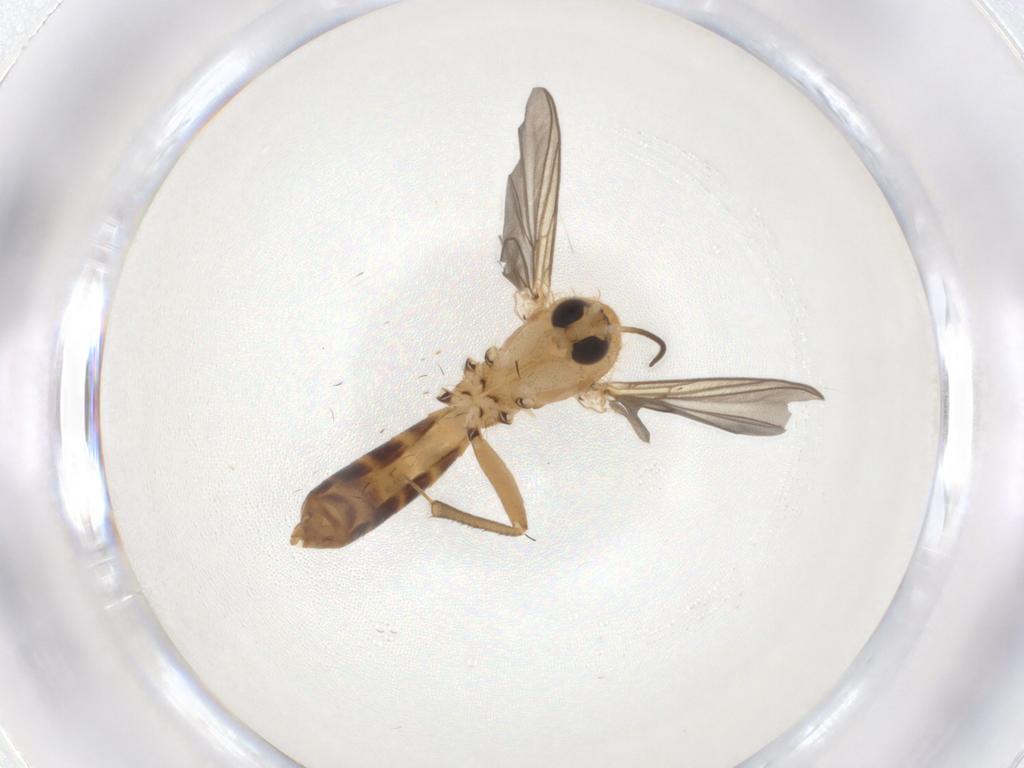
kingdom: Animalia
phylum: Arthropoda
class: Insecta
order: Diptera
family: Mycetophilidae
